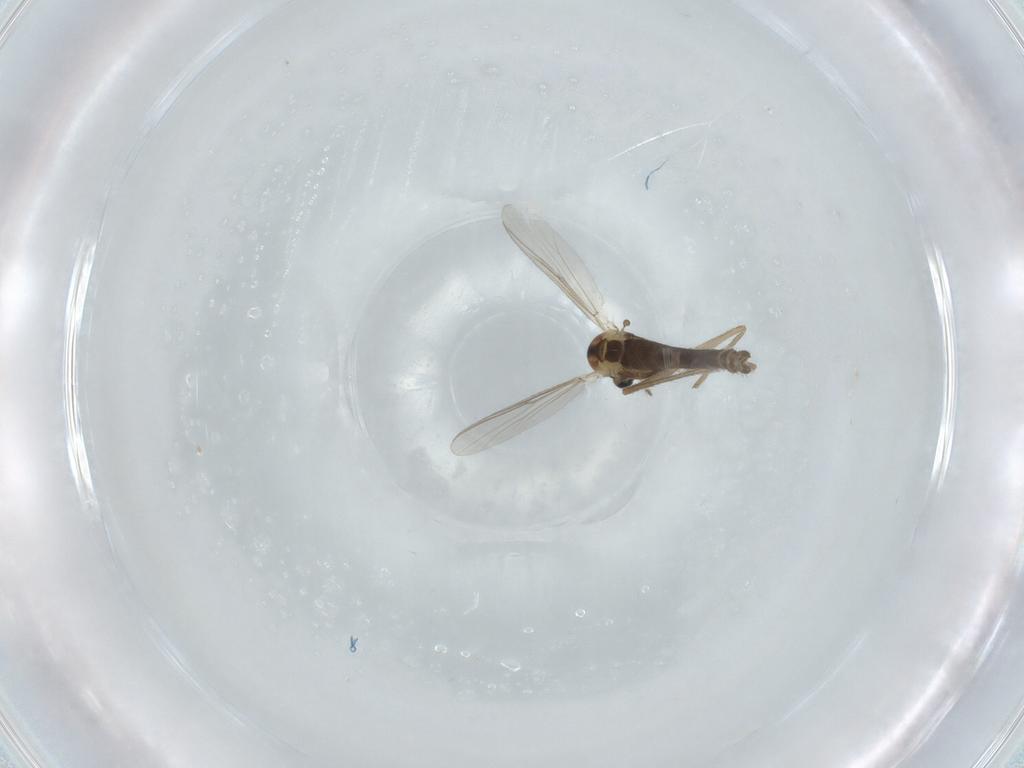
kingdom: Animalia
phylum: Arthropoda
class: Insecta
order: Diptera
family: Chironomidae
